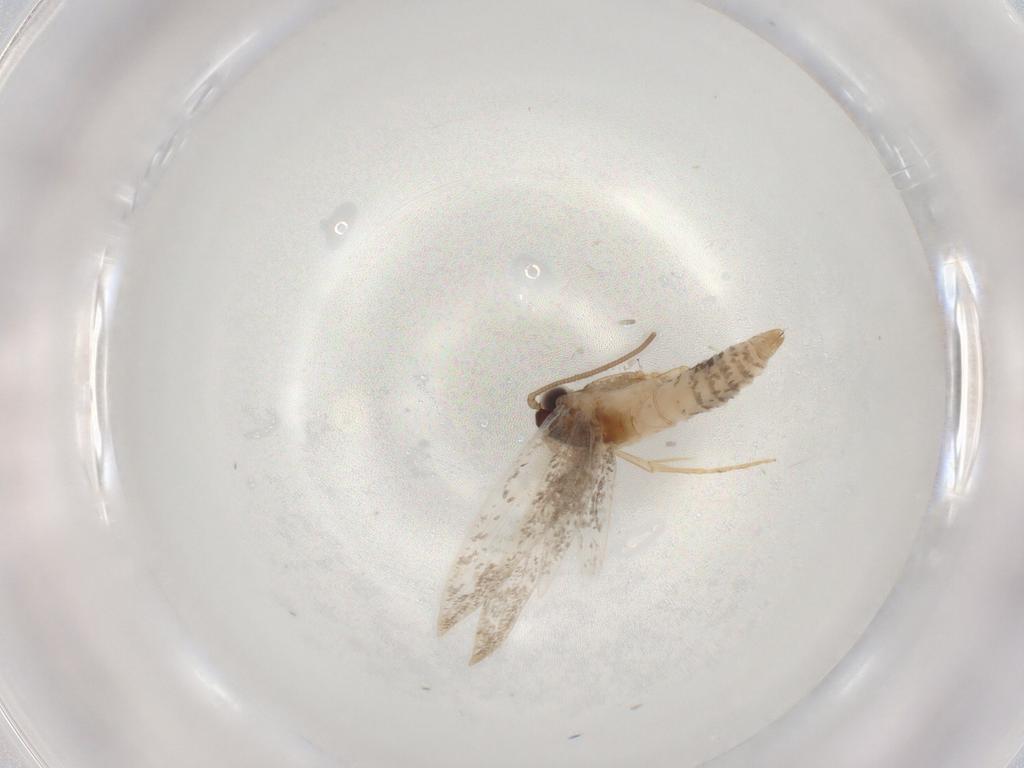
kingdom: Animalia
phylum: Arthropoda
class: Insecta
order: Lepidoptera
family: Tineidae
